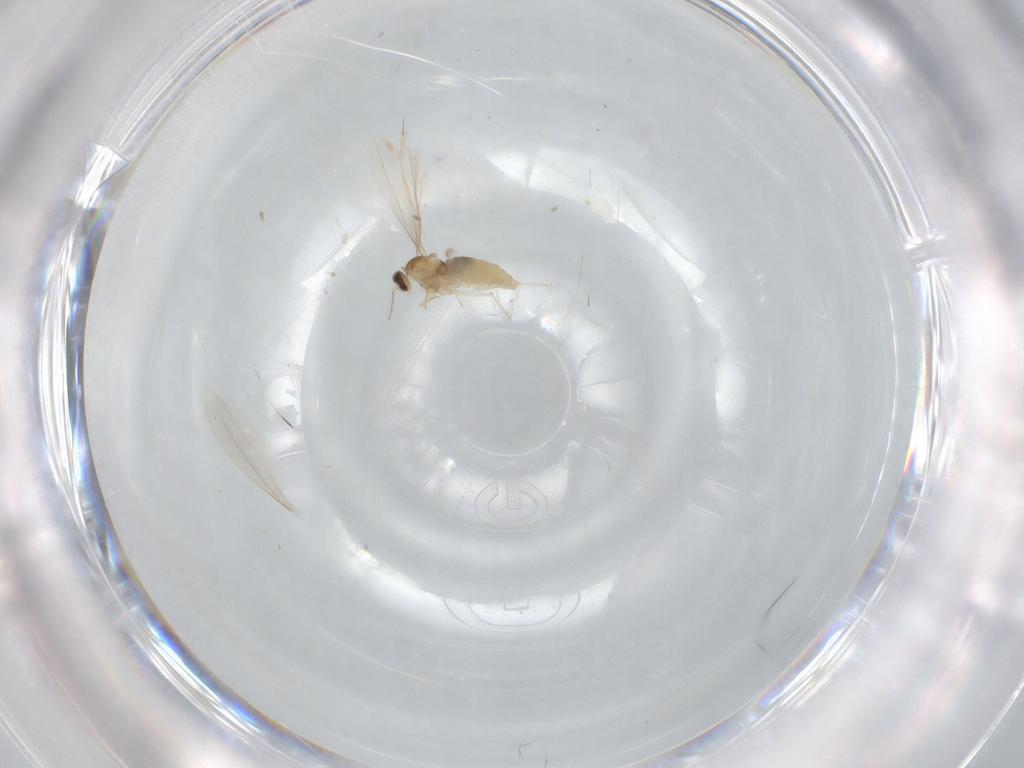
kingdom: Animalia
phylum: Arthropoda
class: Insecta
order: Diptera
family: Cecidomyiidae
